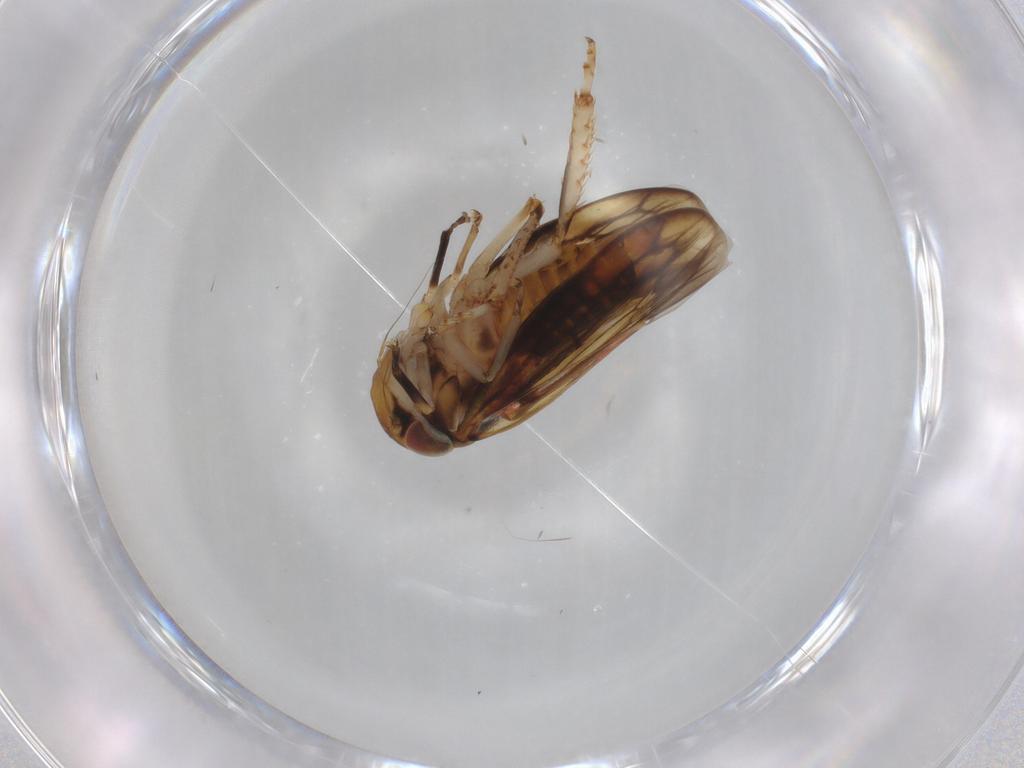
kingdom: Animalia
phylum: Arthropoda
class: Insecta
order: Hemiptera
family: Cicadellidae
